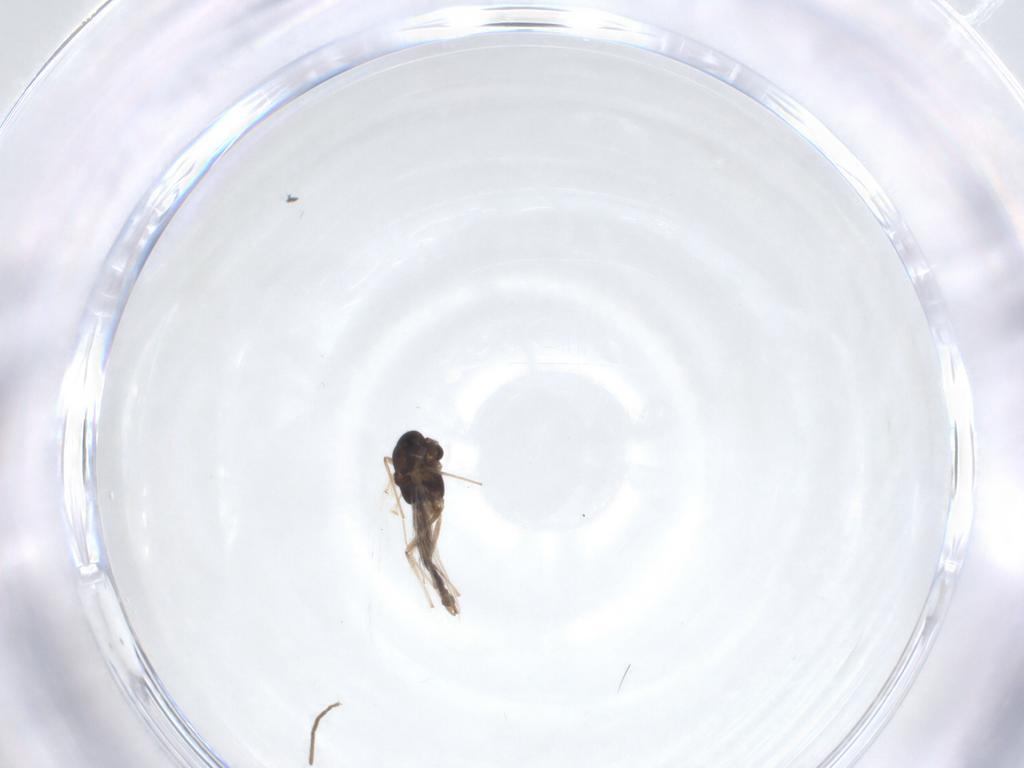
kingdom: Animalia
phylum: Arthropoda
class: Insecta
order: Diptera
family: Chironomidae
